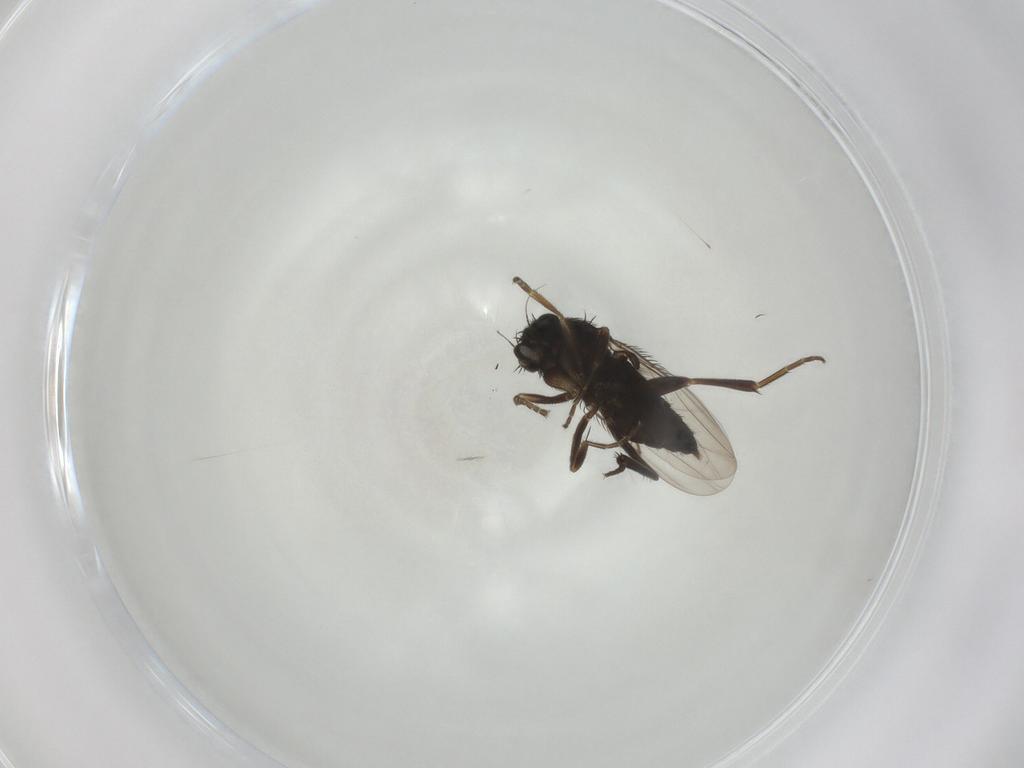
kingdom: Animalia
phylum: Arthropoda
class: Insecta
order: Diptera
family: Phoridae
